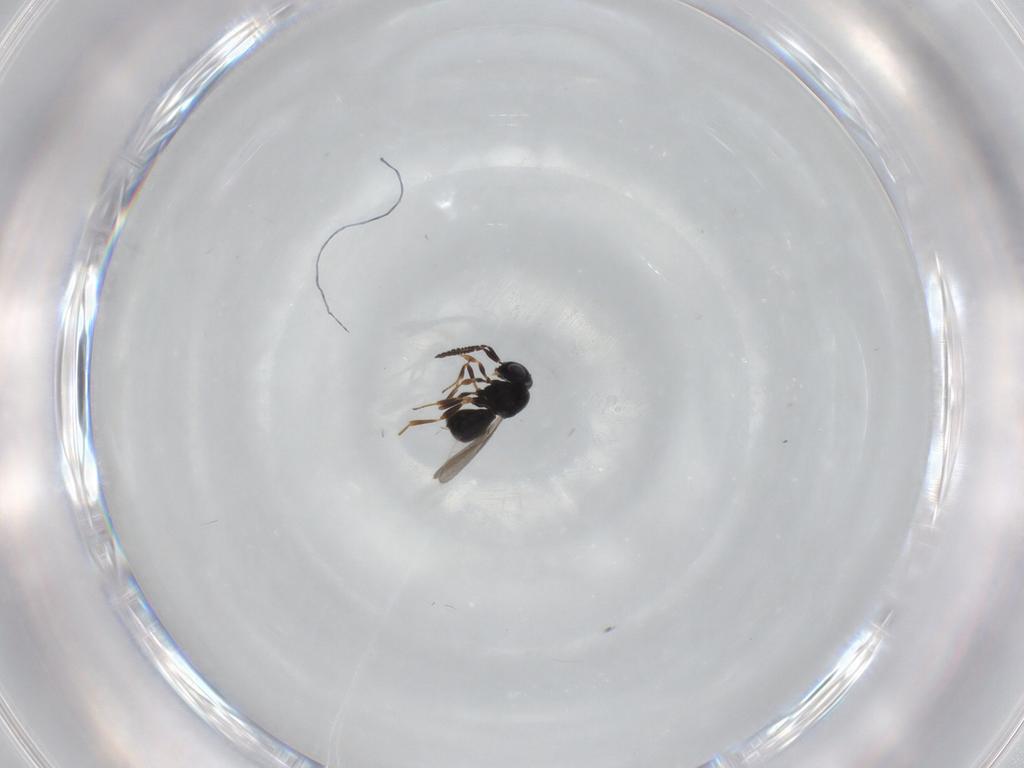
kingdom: Animalia
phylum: Arthropoda
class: Insecta
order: Hymenoptera
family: Scelionidae
